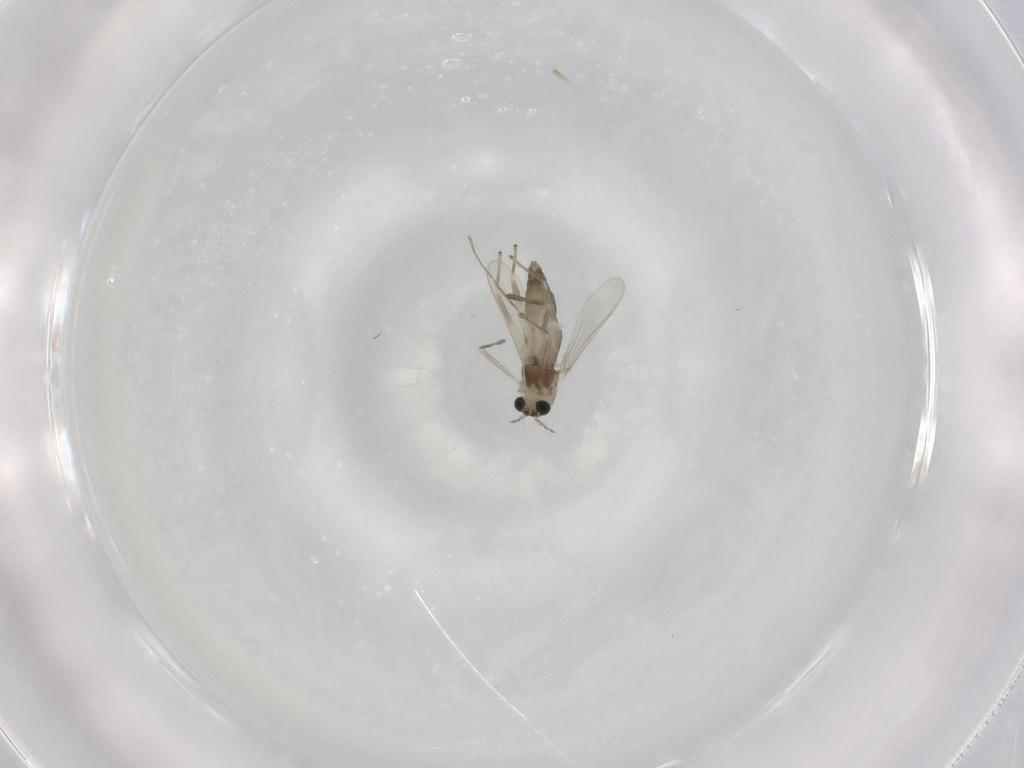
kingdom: Animalia
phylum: Arthropoda
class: Insecta
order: Diptera
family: Chironomidae
